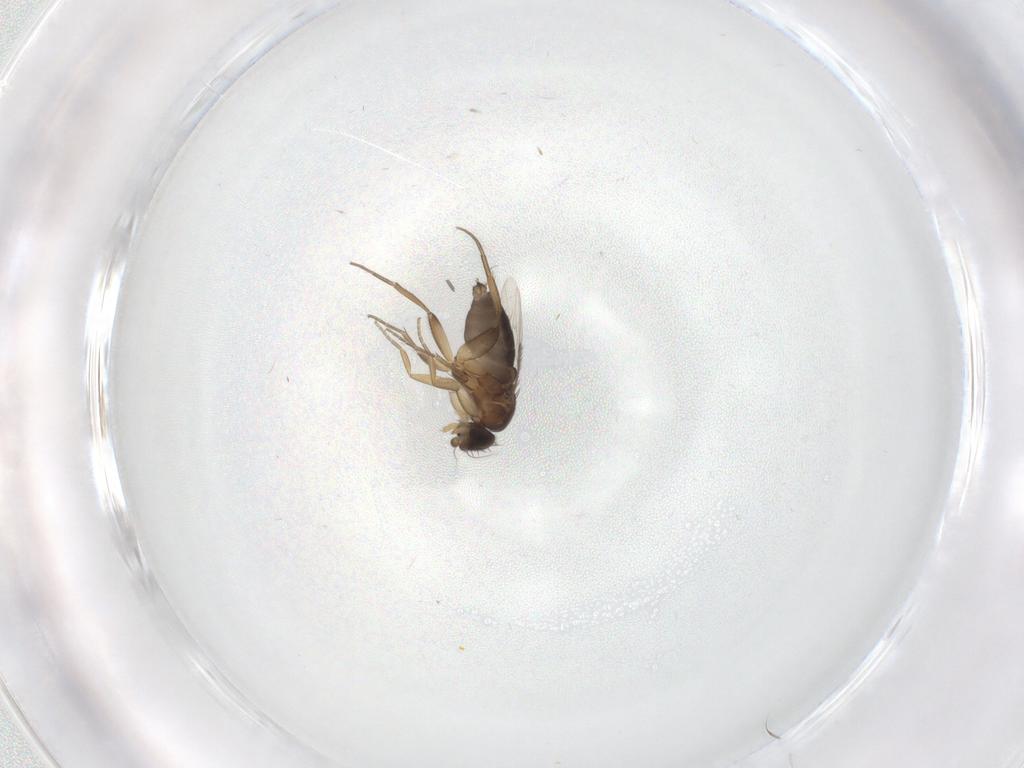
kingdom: Animalia
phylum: Arthropoda
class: Insecta
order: Diptera
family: Phoridae
